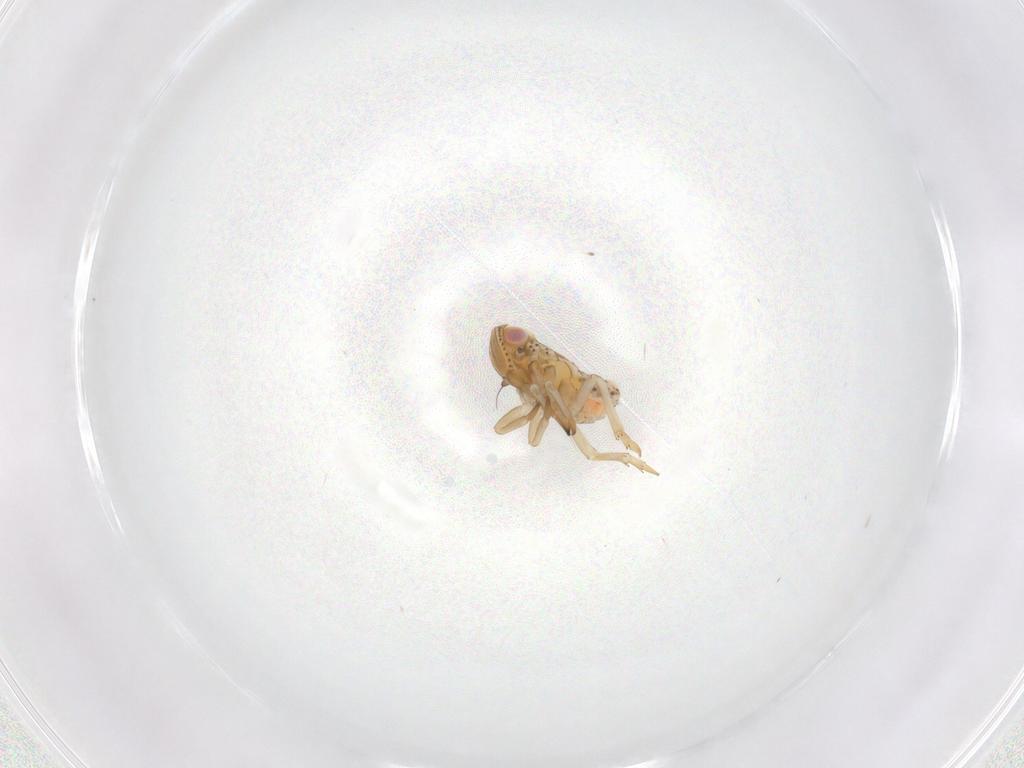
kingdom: Animalia
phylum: Arthropoda
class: Insecta
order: Hemiptera
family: Tropiduchidae
